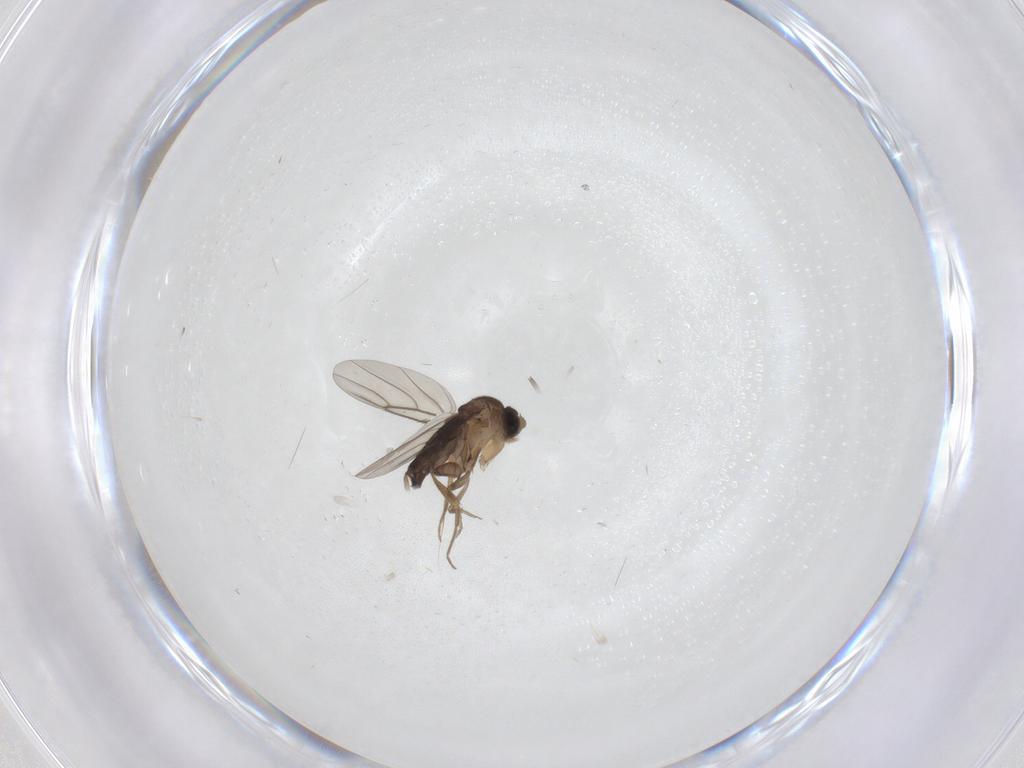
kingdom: Animalia
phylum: Arthropoda
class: Insecta
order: Diptera
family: Phoridae
